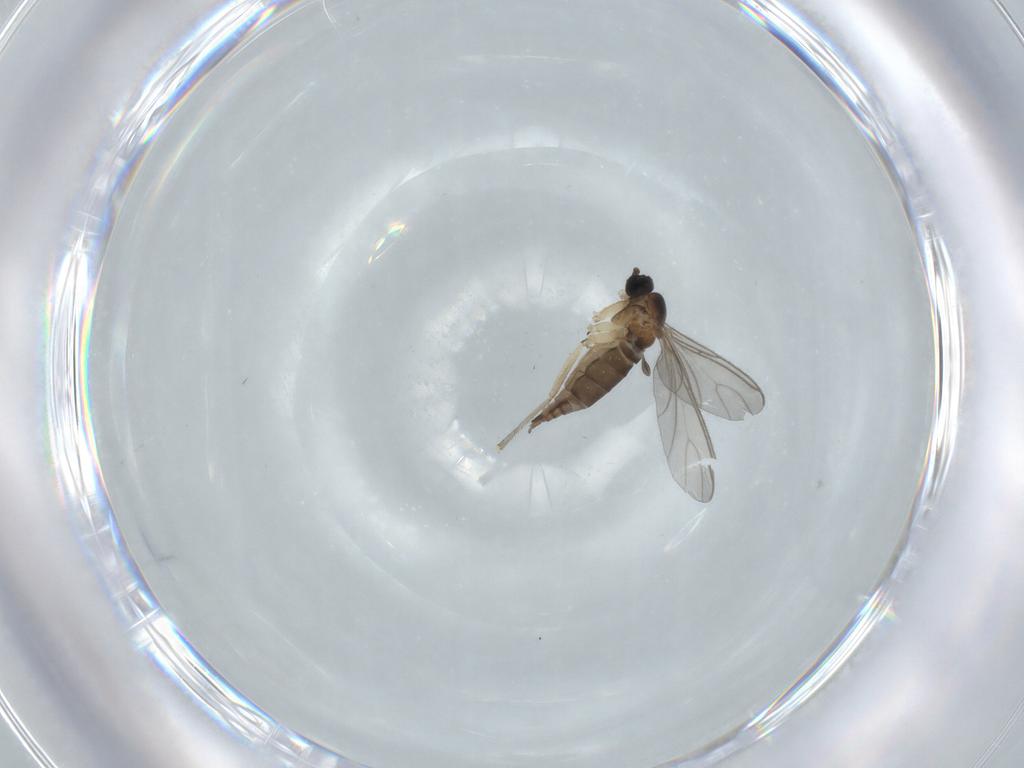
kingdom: Animalia
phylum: Arthropoda
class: Insecta
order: Diptera
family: Sciaridae
